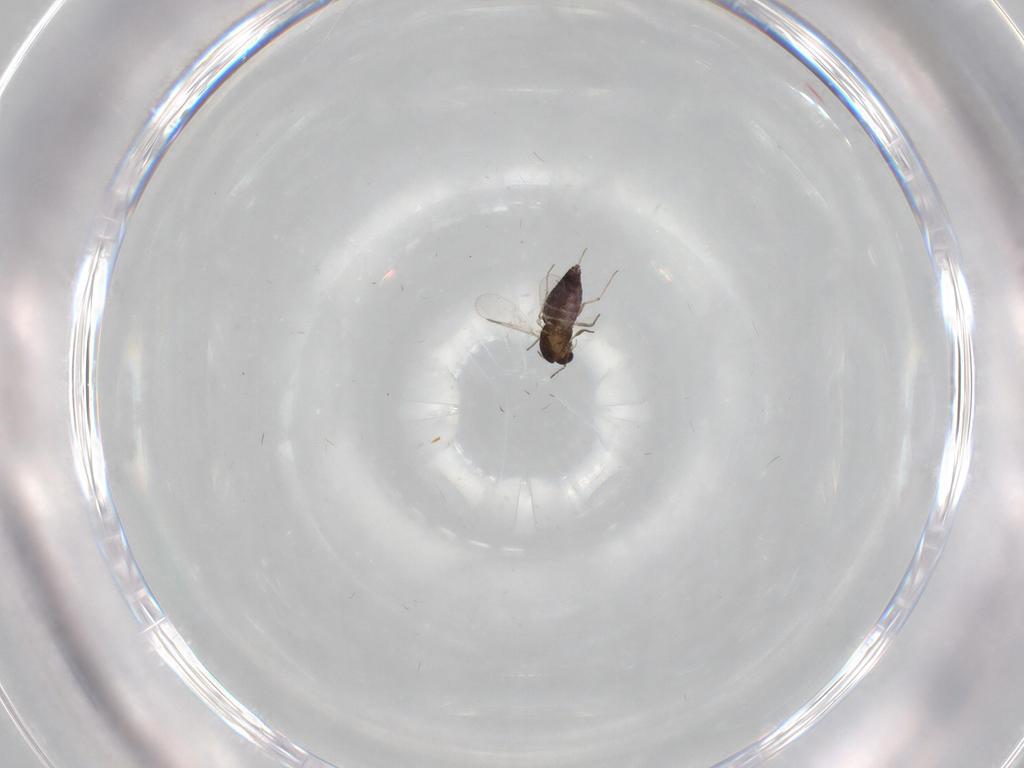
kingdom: Animalia
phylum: Arthropoda
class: Insecta
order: Diptera
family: Chironomidae
